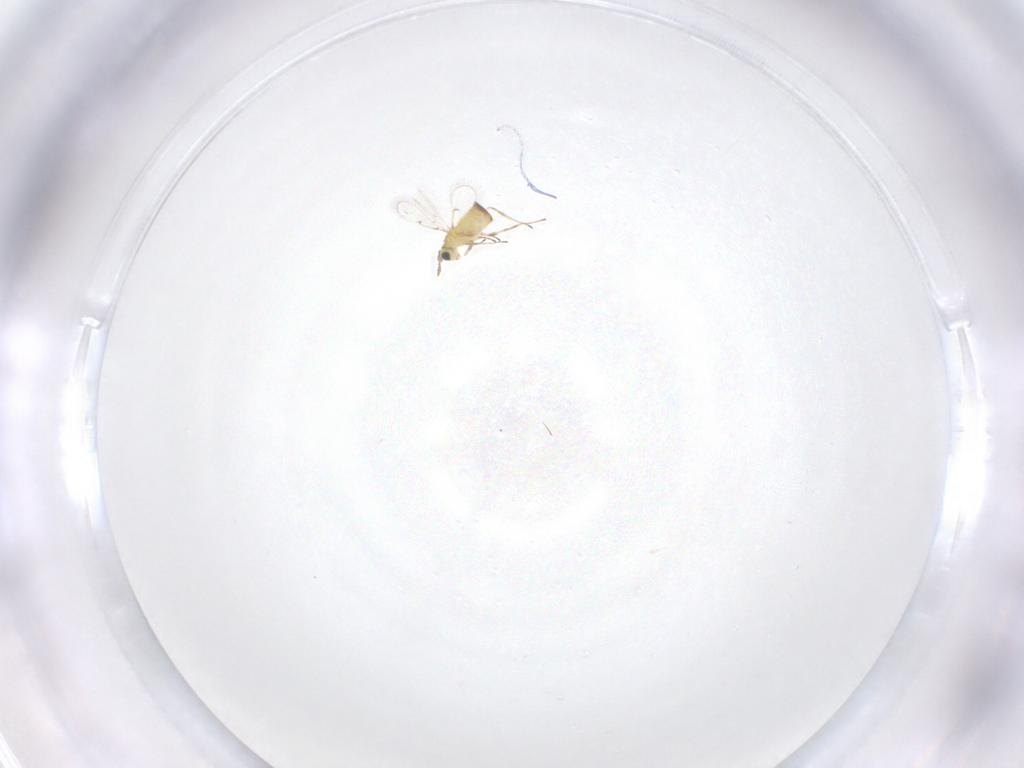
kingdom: Animalia
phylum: Arthropoda
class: Insecta
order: Hymenoptera
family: Trichogrammatidae
